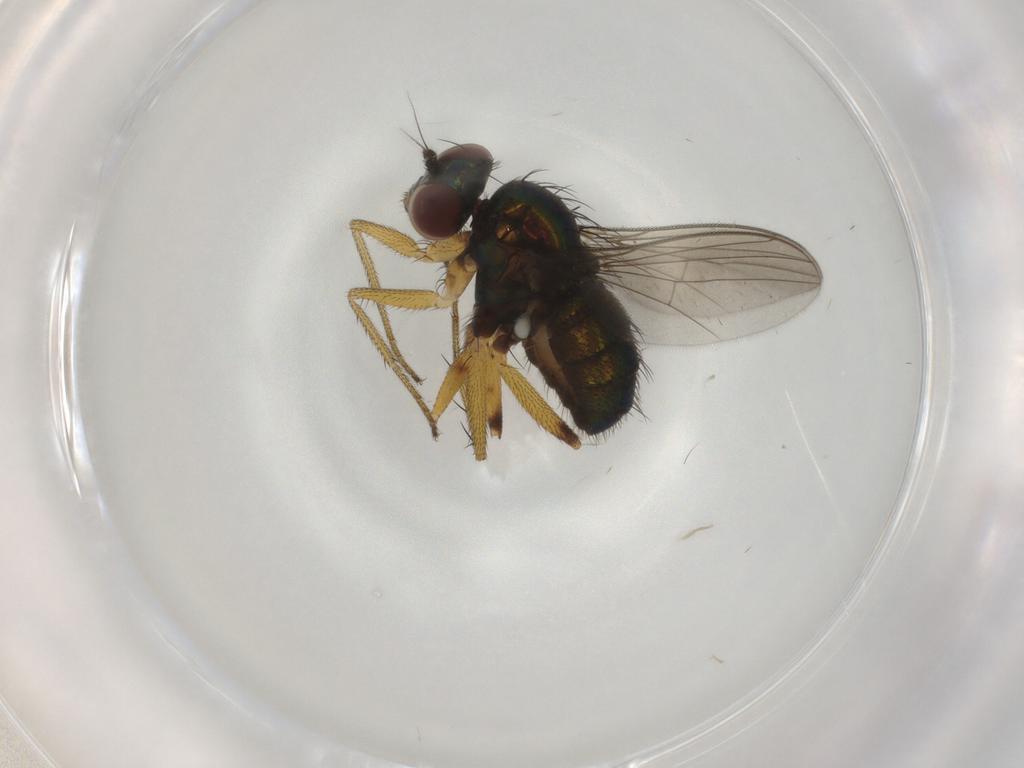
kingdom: Animalia
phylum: Arthropoda
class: Insecta
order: Diptera
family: Dolichopodidae
